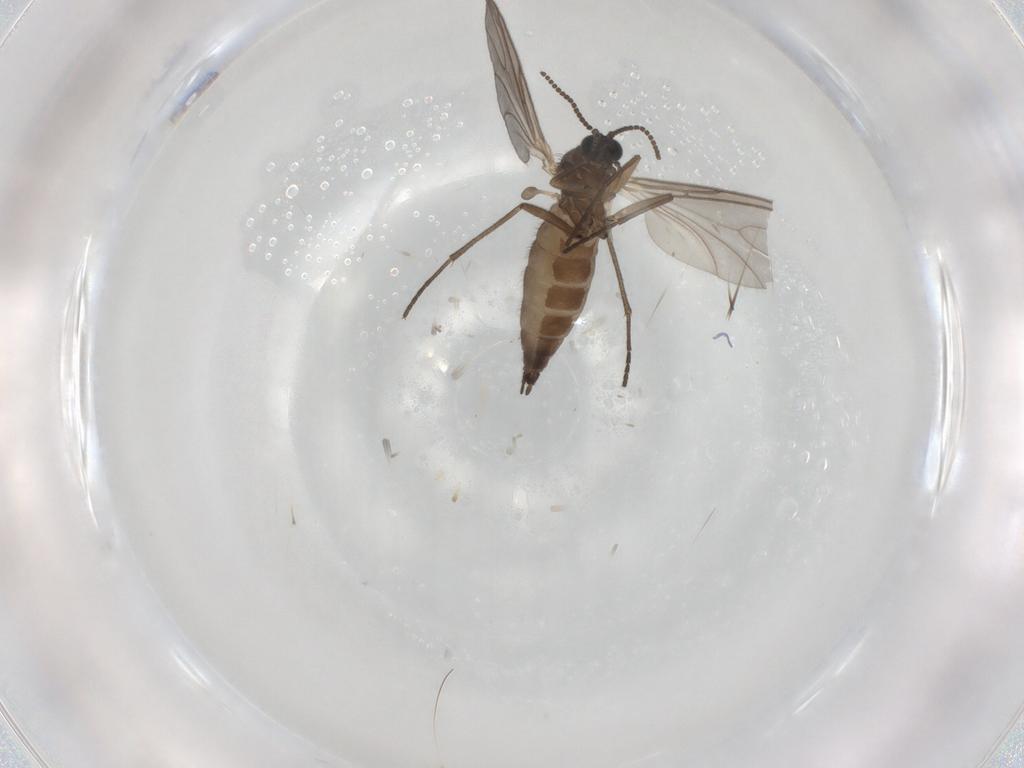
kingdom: Animalia
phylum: Arthropoda
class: Insecta
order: Diptera
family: Sciaridae
